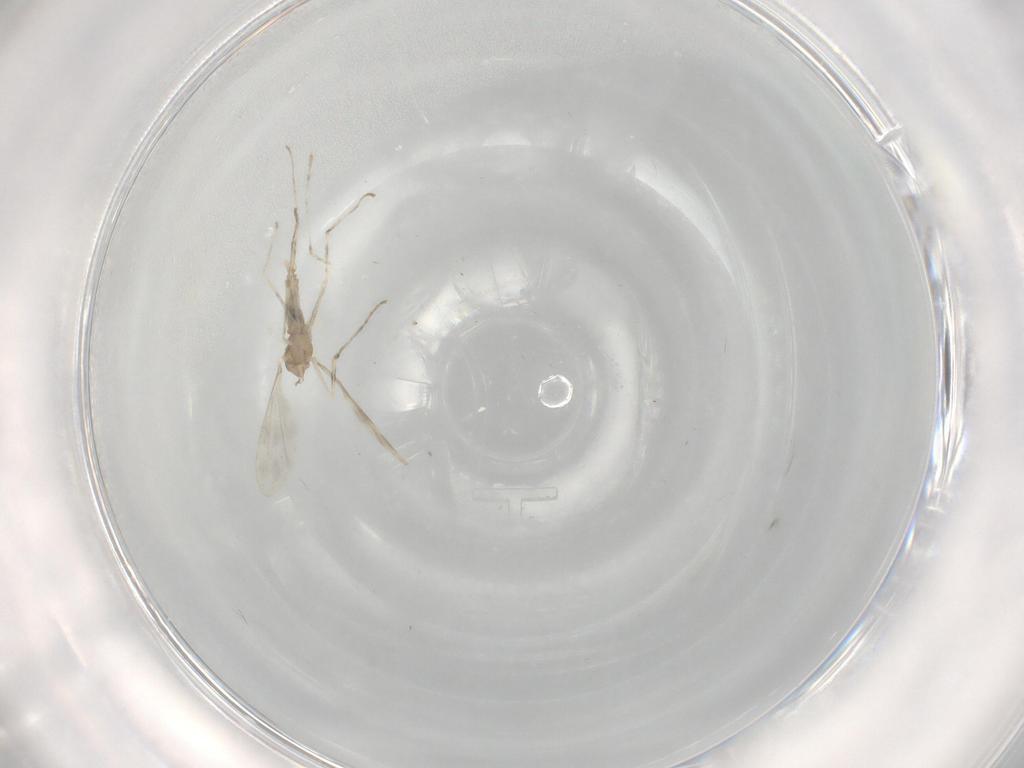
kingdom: Animalia
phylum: Arthropoda
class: Insecta
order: Diptera
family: Cecidomyiidae
